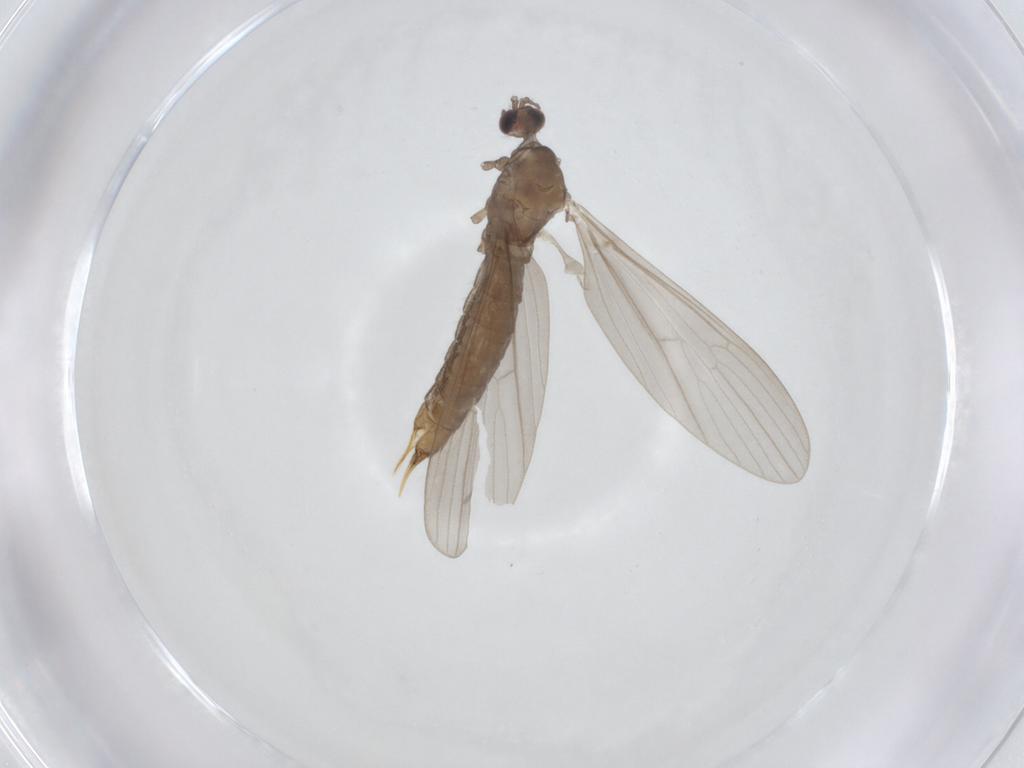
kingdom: Animalia
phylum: Arthropoda
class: Insecta
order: Diptera
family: Limoniidae
